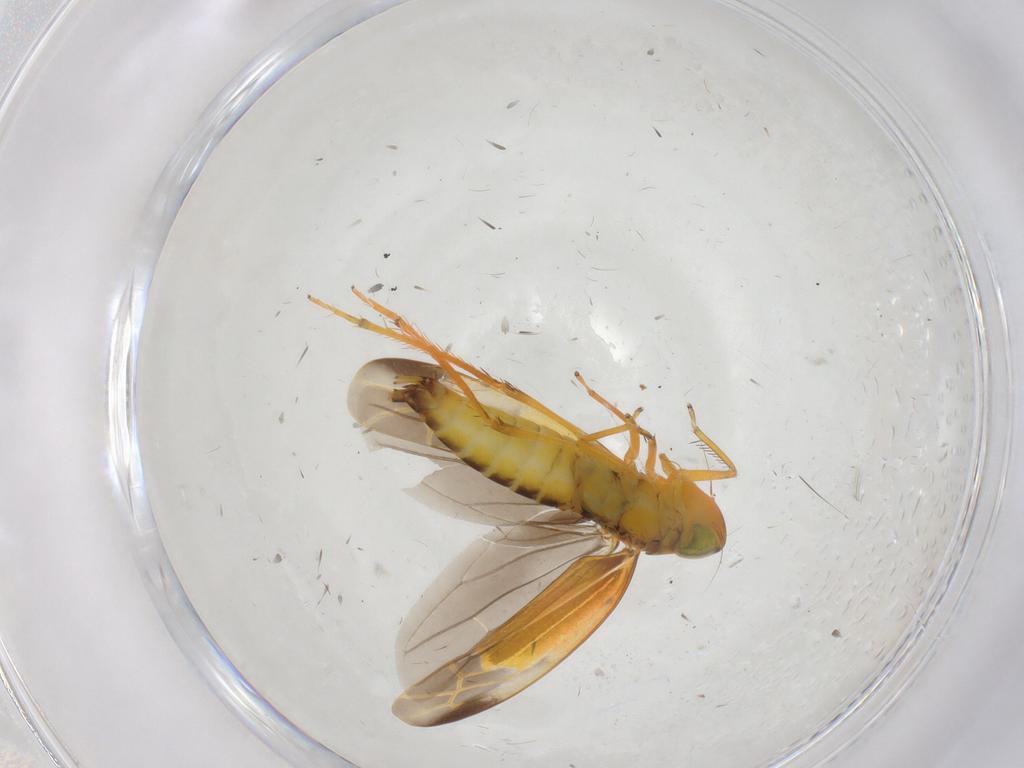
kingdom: Animalia
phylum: Arthropoda
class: Insecta
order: Hemiptera
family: Cicadellidae
